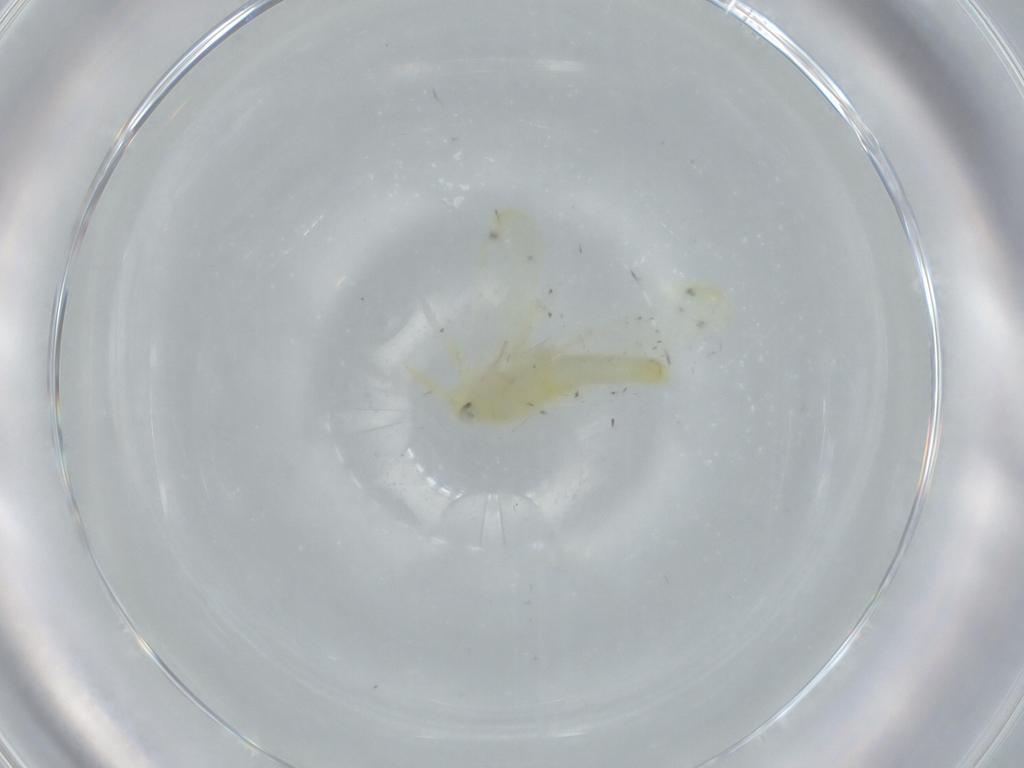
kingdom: Animalia
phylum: Arthropoda
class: Insecta
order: Hemiptera
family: Cicadellidae
